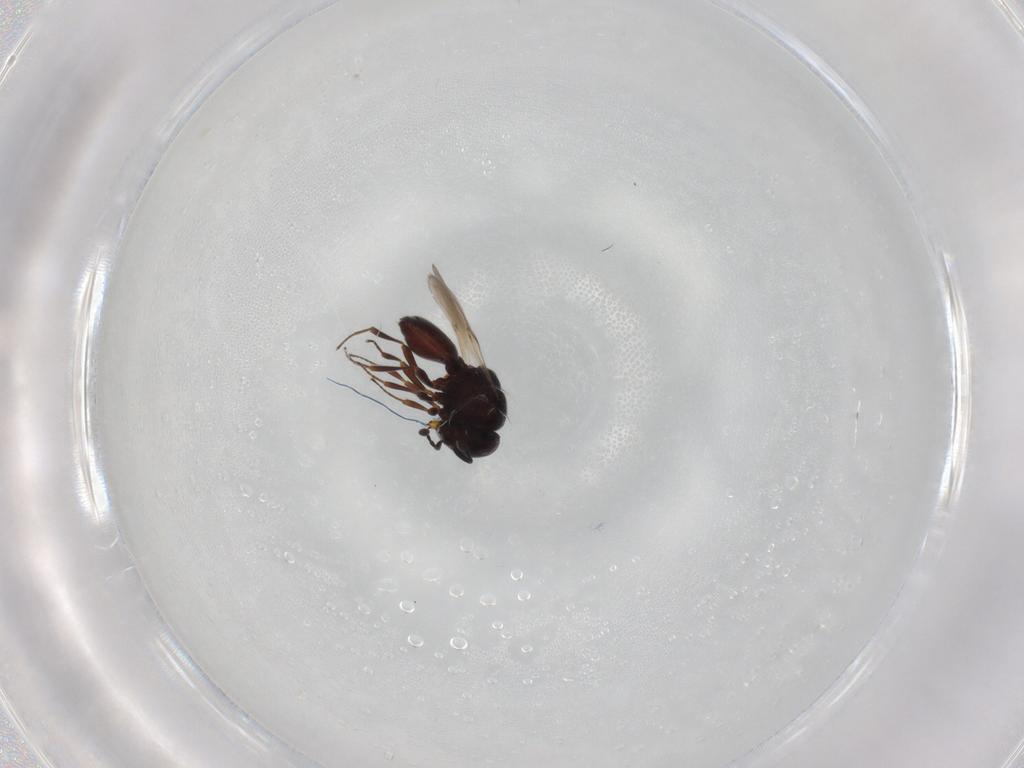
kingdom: Animalia
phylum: Arthropoda
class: Insecta
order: Hymenoptera
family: Scelionidae
